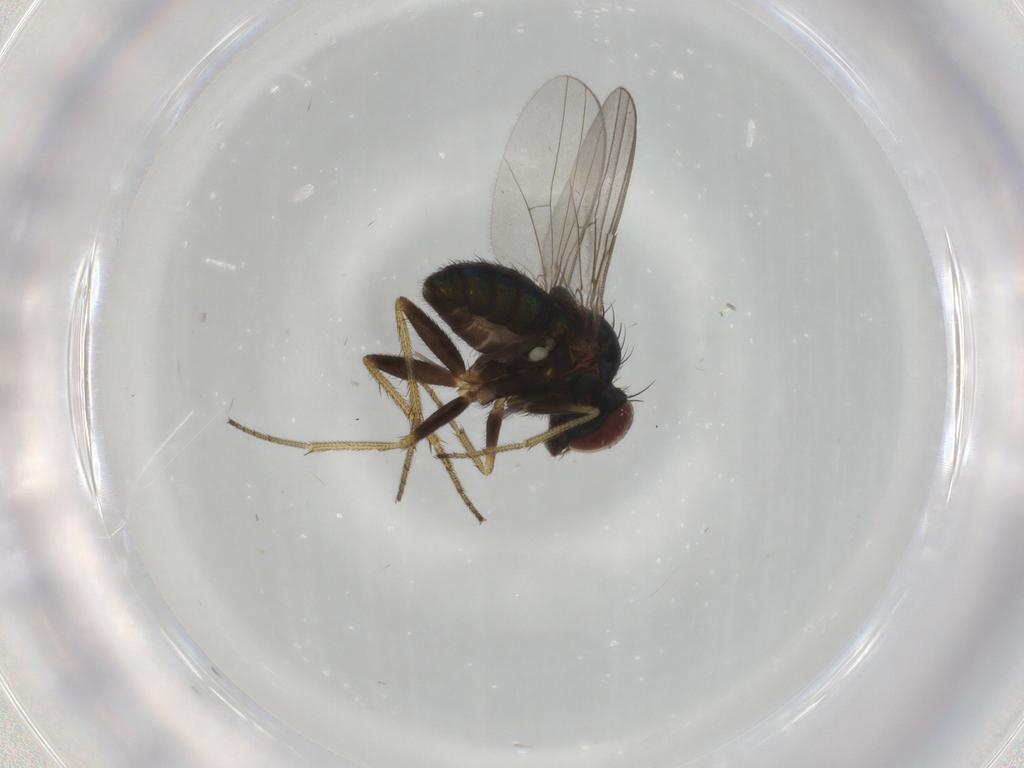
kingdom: Animalia
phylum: Arthropoda
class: Insecta
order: Diptera
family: Dolichopodidae
